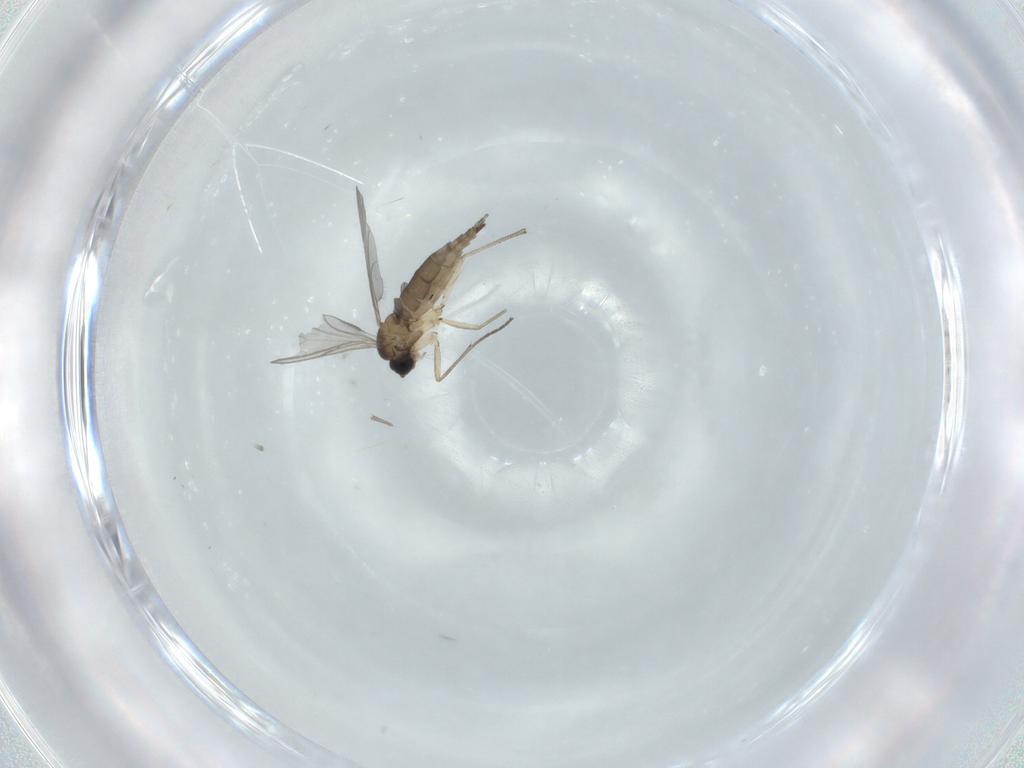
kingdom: Animalia
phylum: Arthropoda
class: Insecta
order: Diptera
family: Sciaridae
